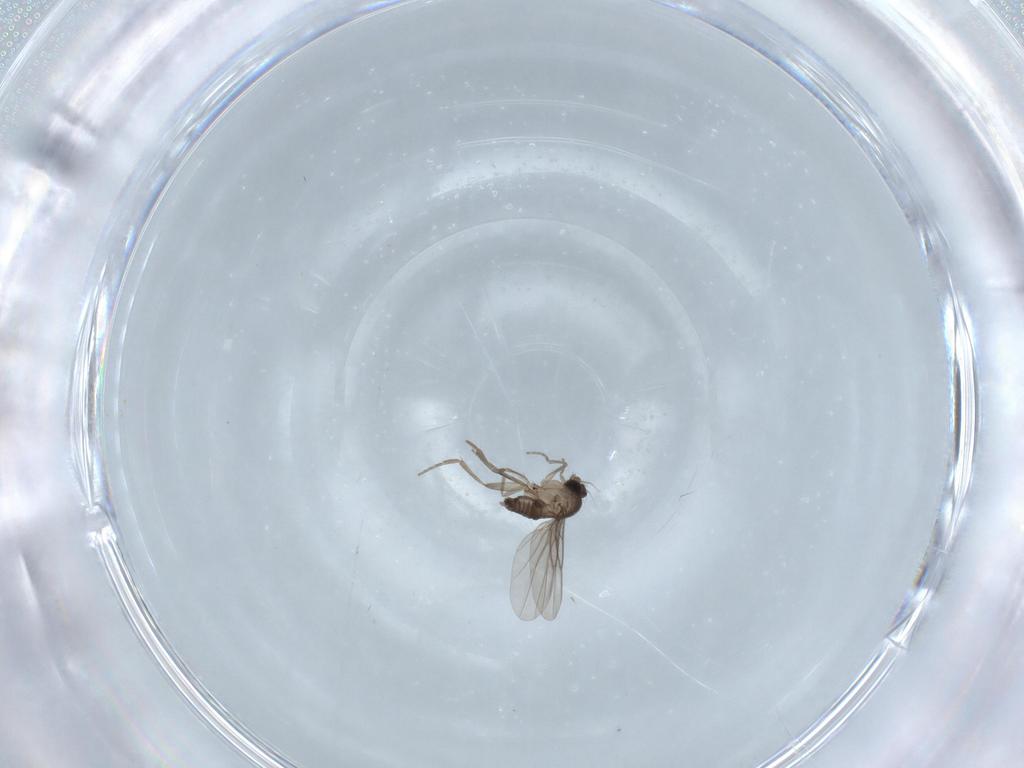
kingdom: Animalia
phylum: Arthropoda
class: Insecta
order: Diptera
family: Phoridae
